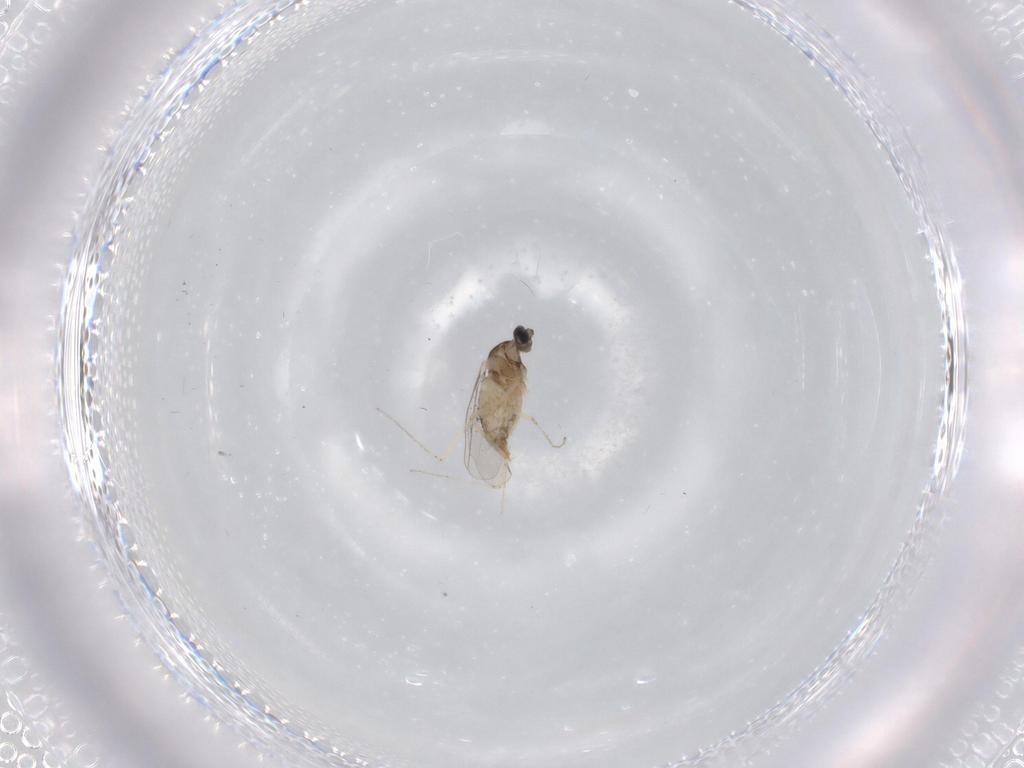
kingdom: Animalia
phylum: Arthropoda
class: Insecta
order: Diptera
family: Cecidomyiidae
